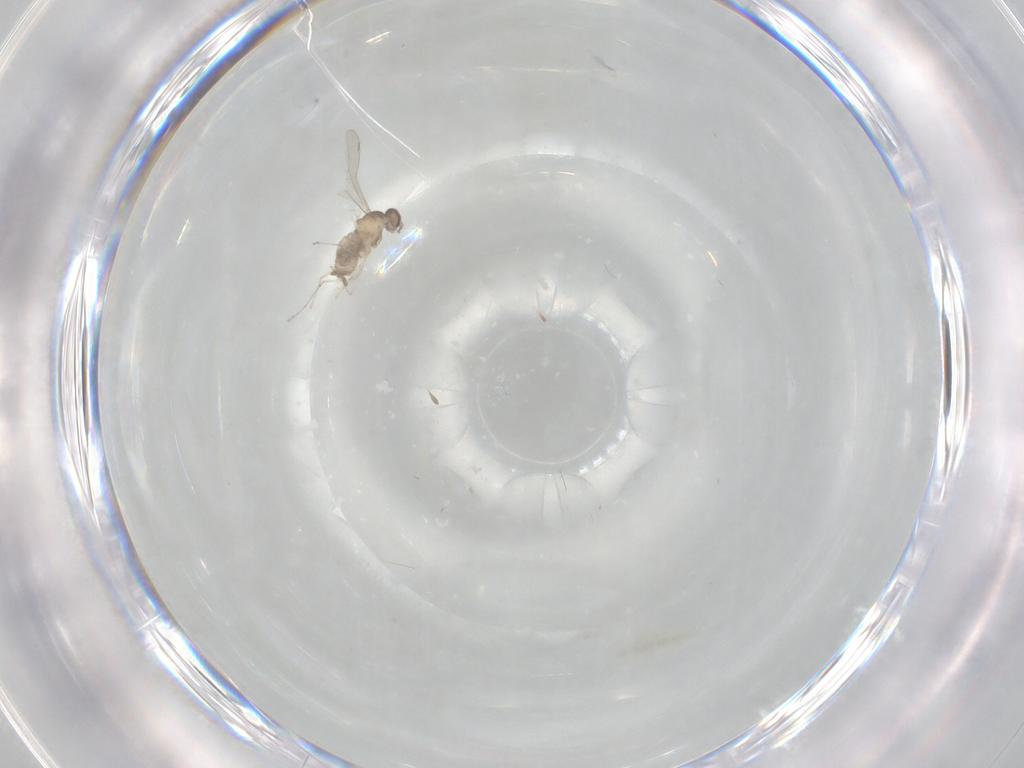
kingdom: Animalia
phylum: Arthropoda
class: Insecta
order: Diptera
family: Cecidomyiidae
